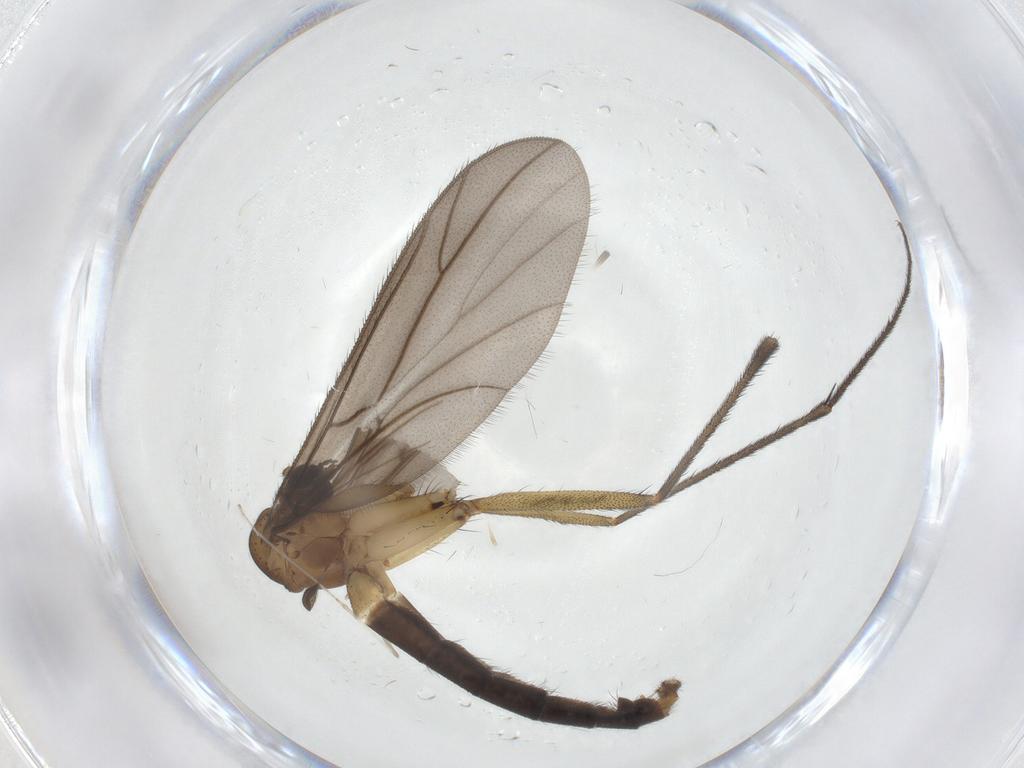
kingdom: Animalia
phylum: Arthropoda
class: Insecta
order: Diptera
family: Ditomyiidae
